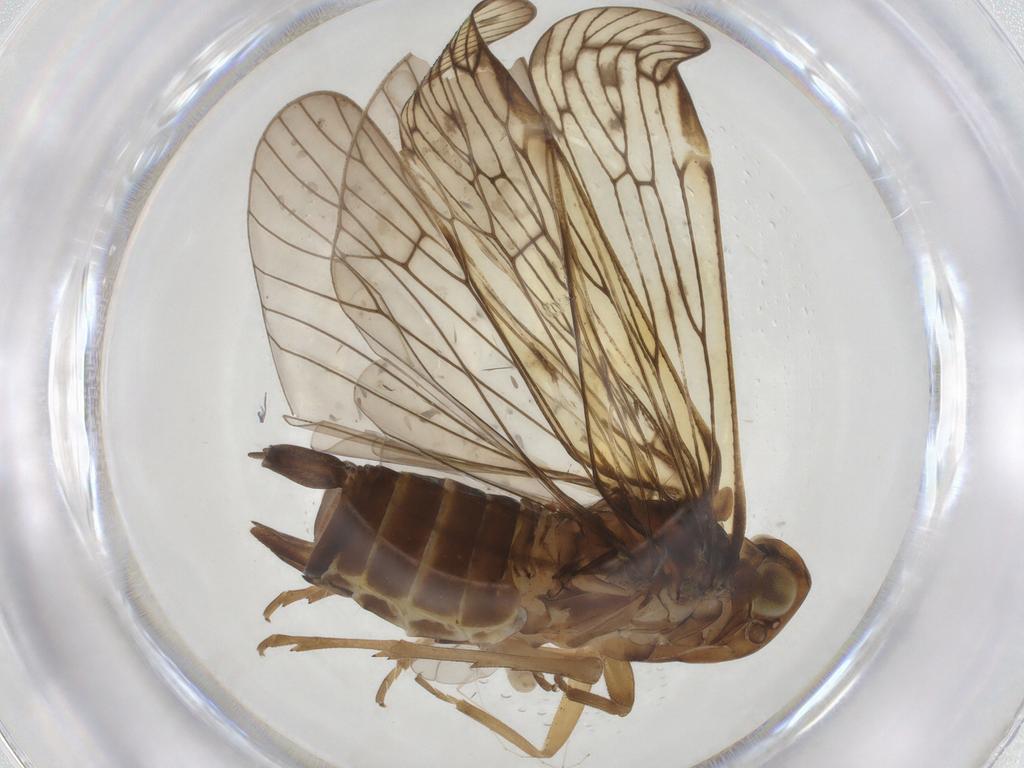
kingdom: Animalia
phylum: Arthropoda
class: Insecta
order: Hemiptera
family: Cixiidae
